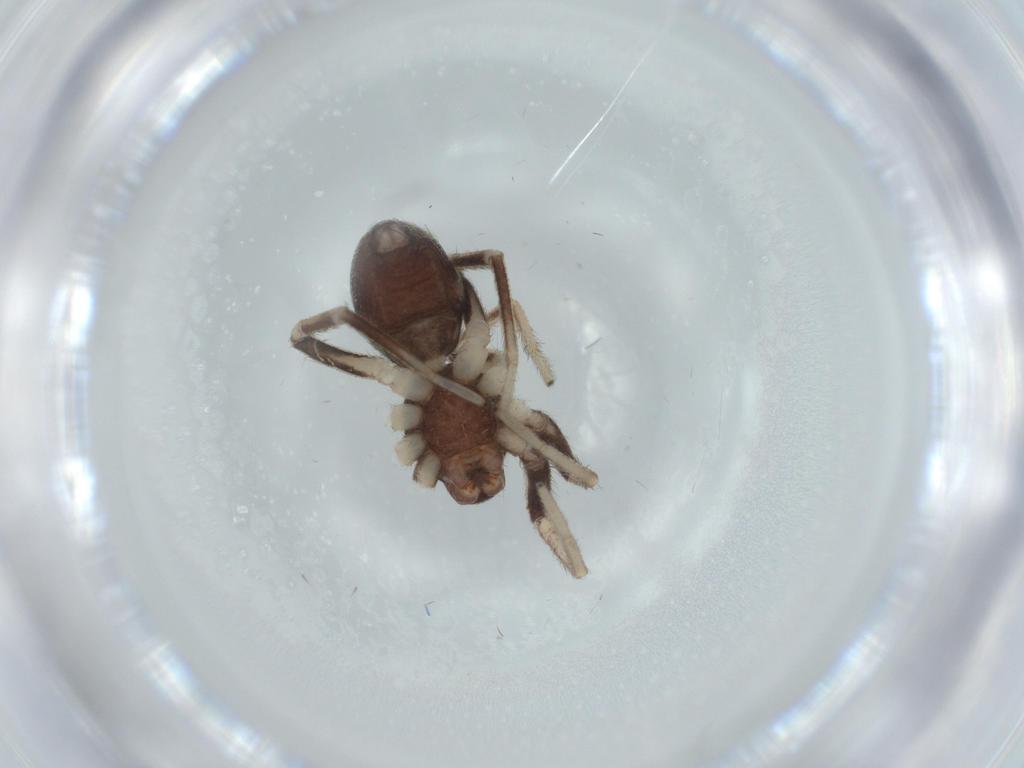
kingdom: Animalia
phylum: Arthropoda
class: Arachnida
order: Araneae
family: Corinnidae
